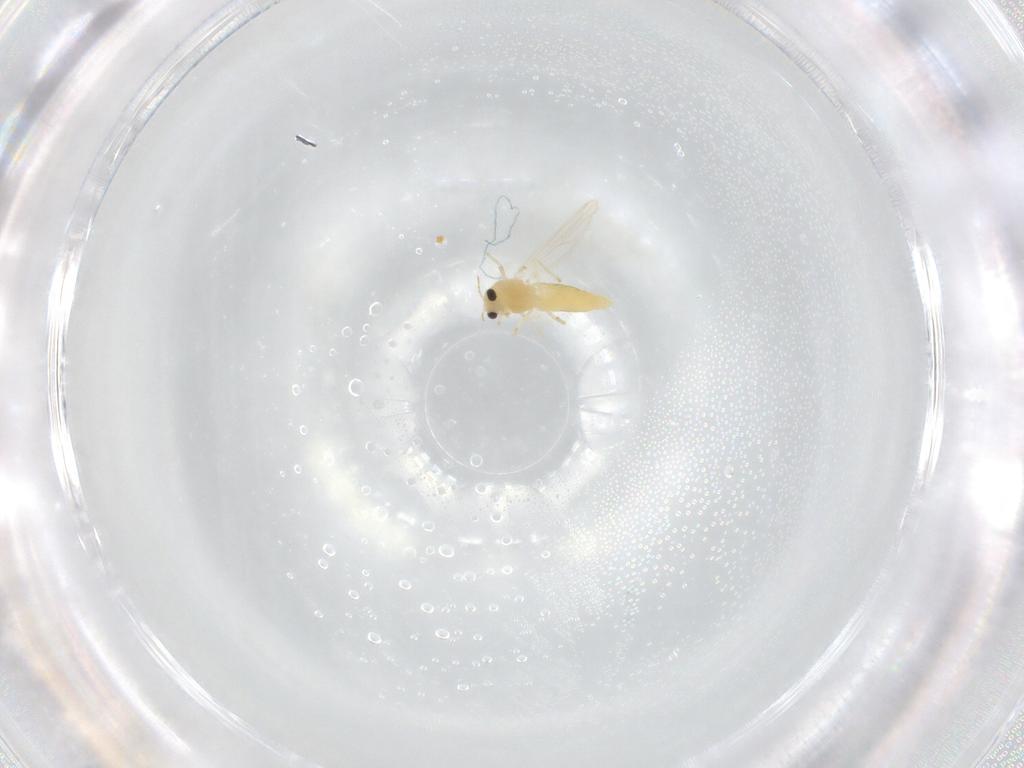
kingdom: Animalia
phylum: Arthropoda
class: Insecta
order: Diptera
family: Chironomidae
